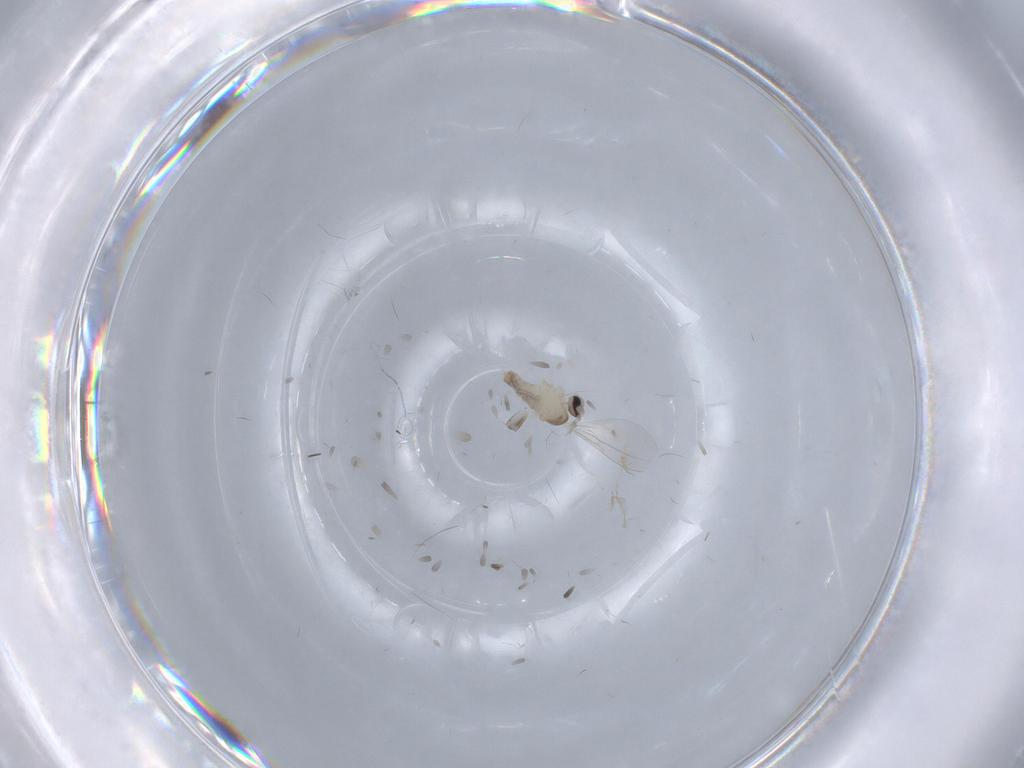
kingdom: Animalia
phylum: Arthropoda
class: Insecta
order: Diptera
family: Cecidomyiidae
